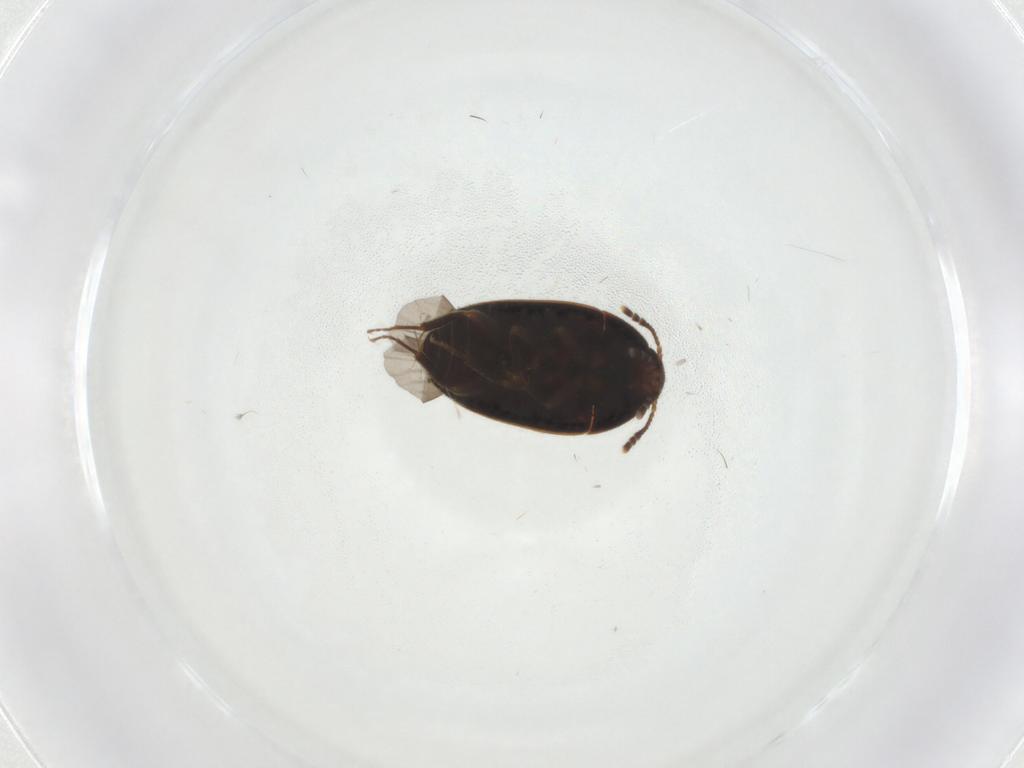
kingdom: Animalia
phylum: Arthropoda
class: Insecta
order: Coleoptera
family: Mycetophagidae
